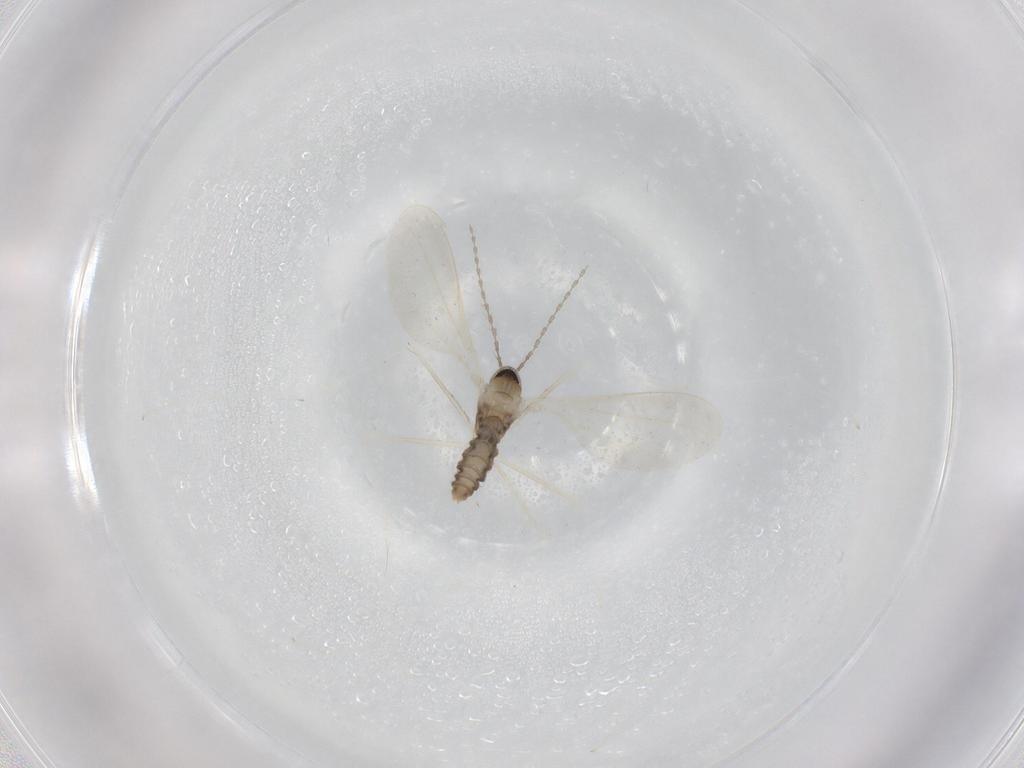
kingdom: Animalia
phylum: Arthropoda
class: Insecta
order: Diptera
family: Cecidomyiidae
